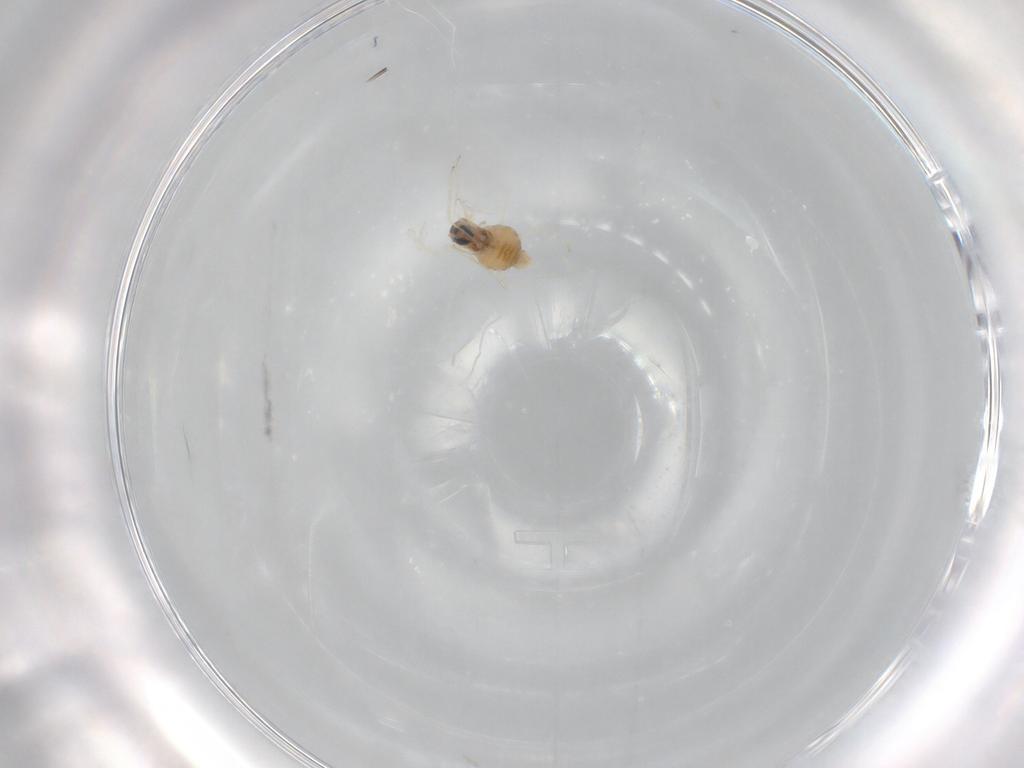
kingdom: Animalia
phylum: Arthropoda
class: Insecta
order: Diptera
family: Cecidomyiidae
